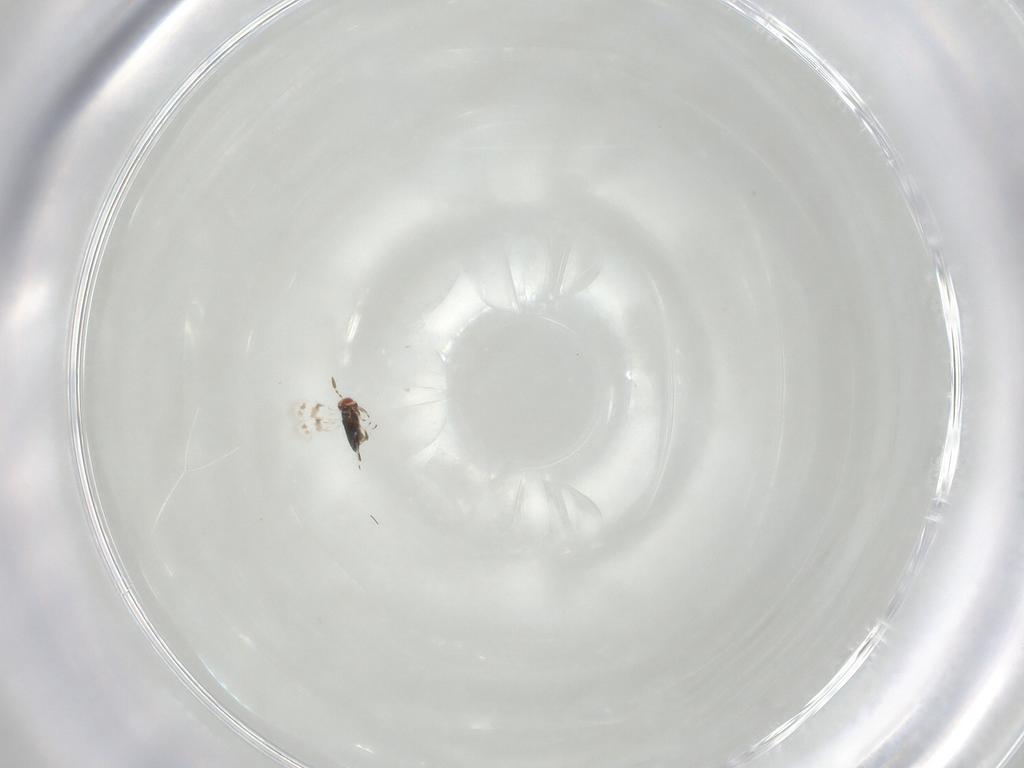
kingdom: Animalia
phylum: Arthropoda
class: Insecta
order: Hymenoptera
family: Azotidae
